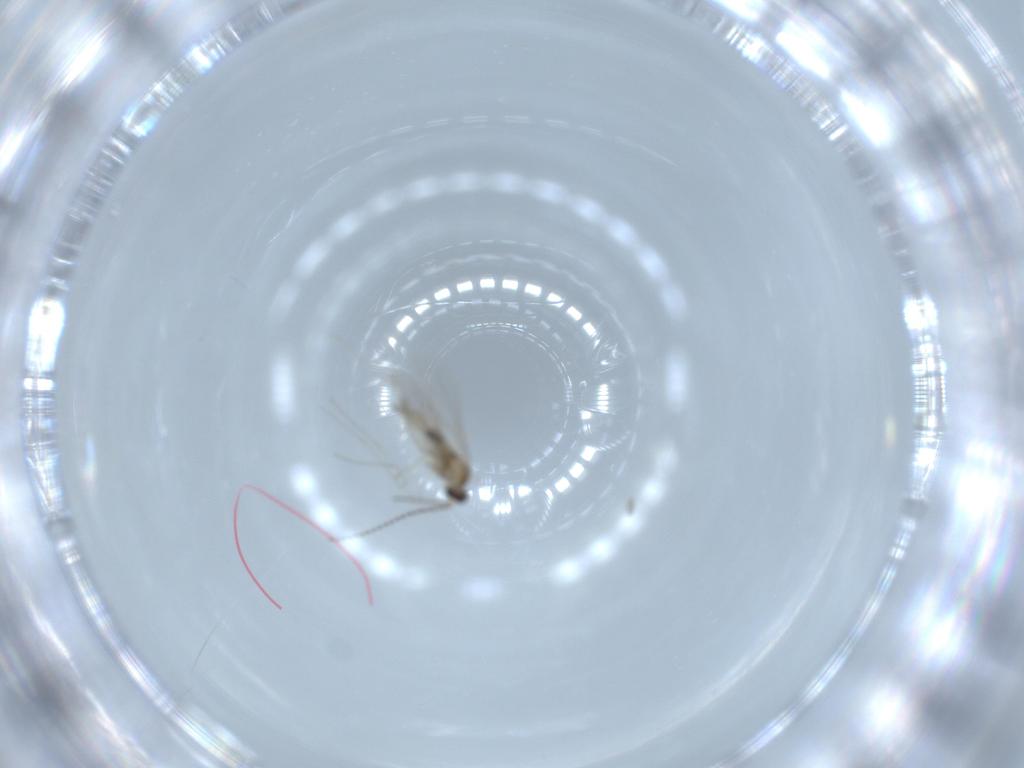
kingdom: Animalia
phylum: Arthropoda
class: Insecta
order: Diptera
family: Cecidomyiidae
